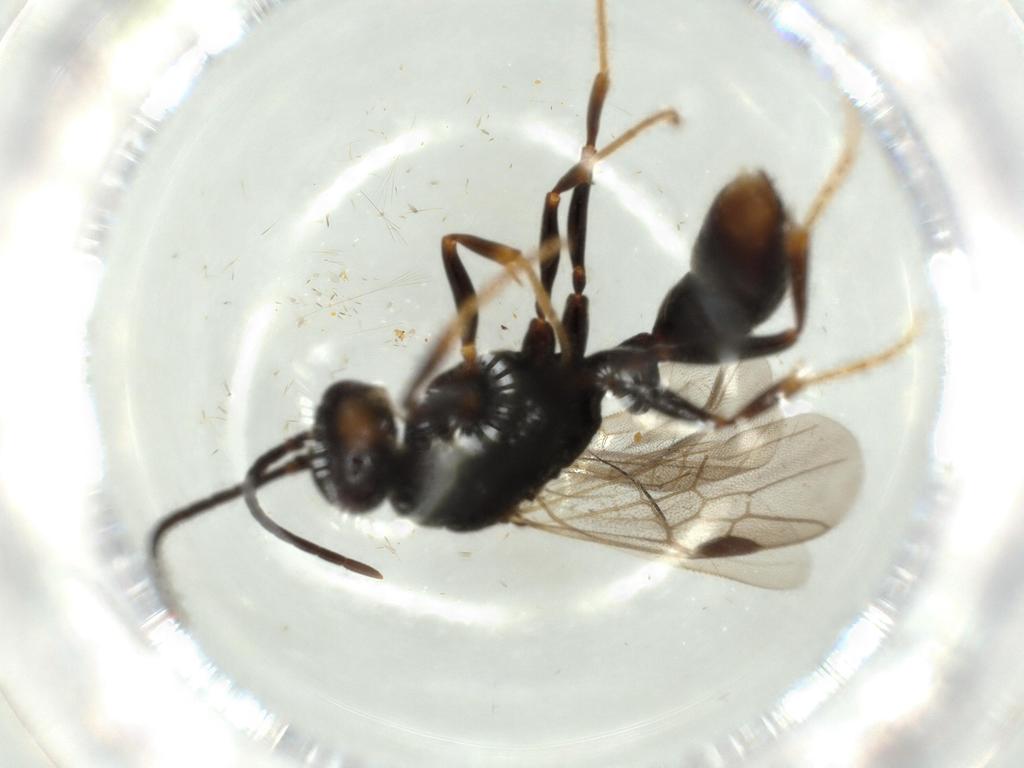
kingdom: Animalia
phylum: Arthropoda
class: Insecta
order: Hymenoptera
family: Formicidae
